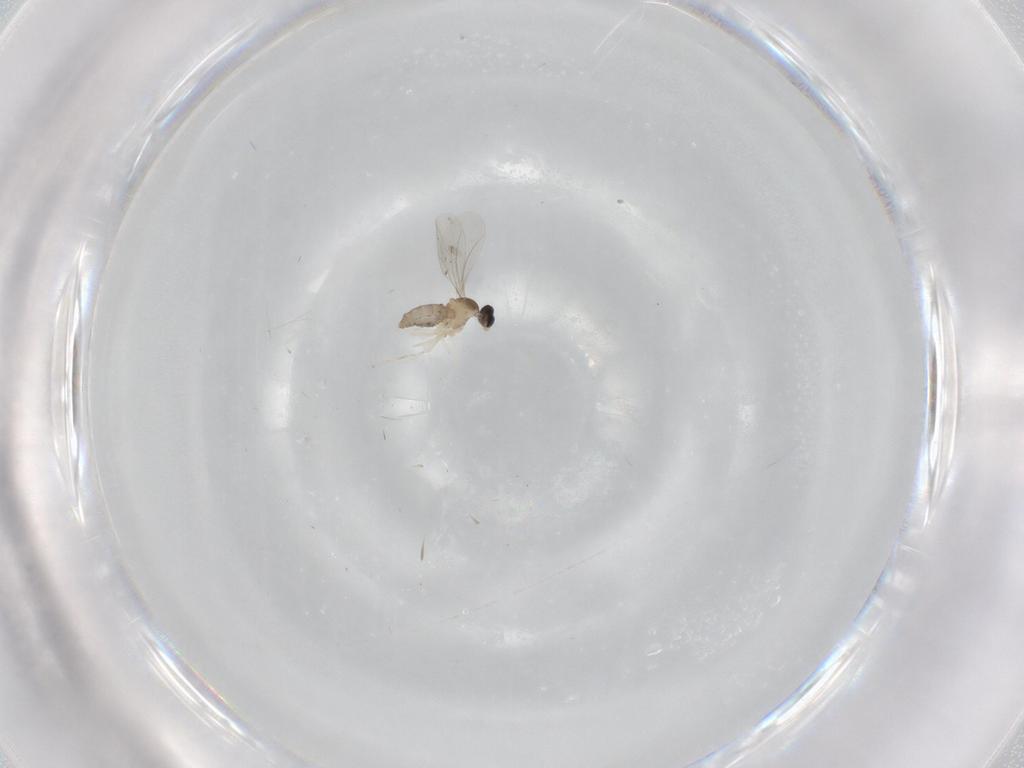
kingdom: Animalia
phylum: Arthropoda
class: Insecta
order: Diptera
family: Cecidomyiidae
